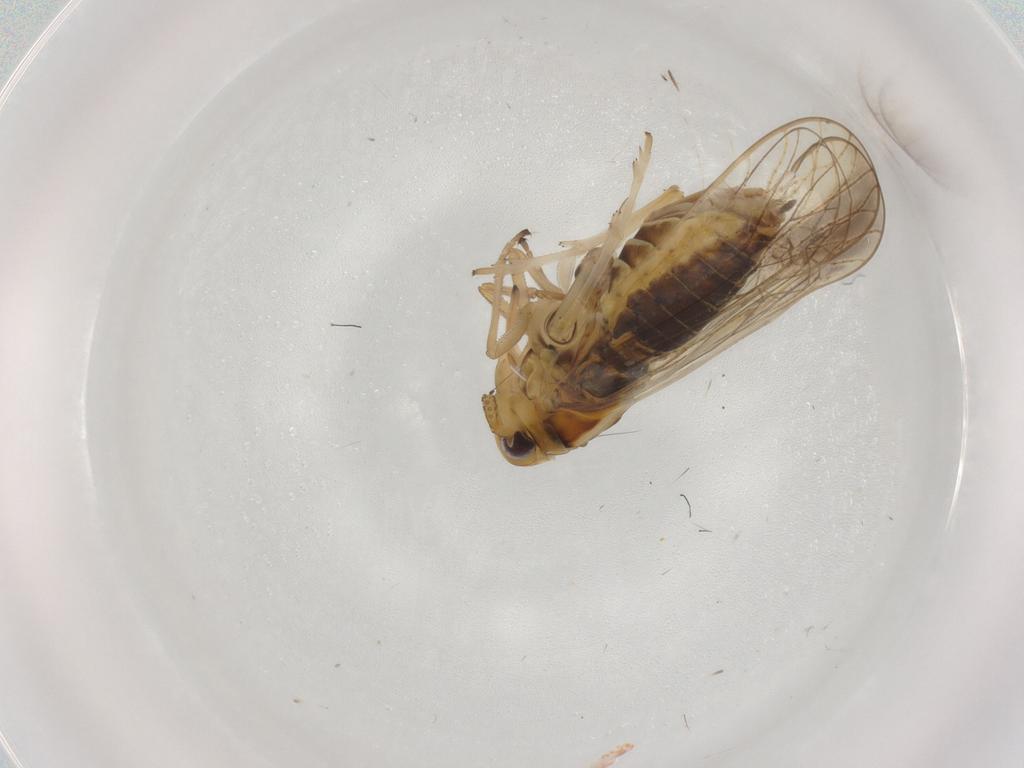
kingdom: Animalia
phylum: Arthropoda
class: Insecta
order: Hemiptera
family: Delphacidae
